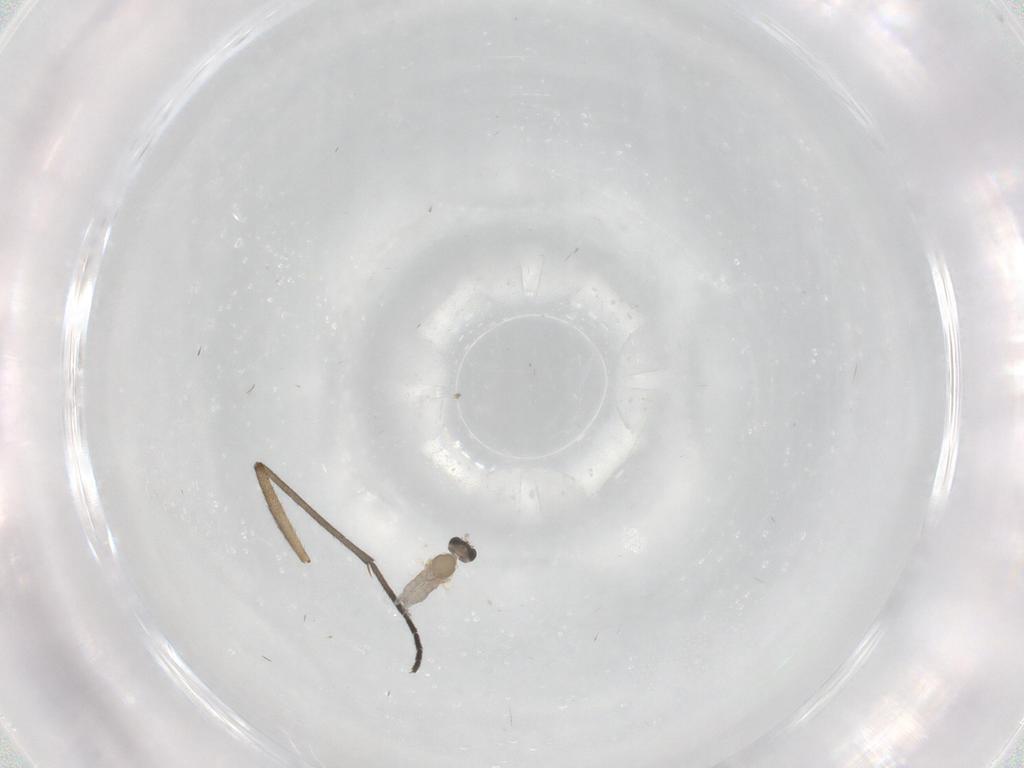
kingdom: Animalia
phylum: Arthropoda
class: Insecta
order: Diptera
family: Cecidomyiidae
